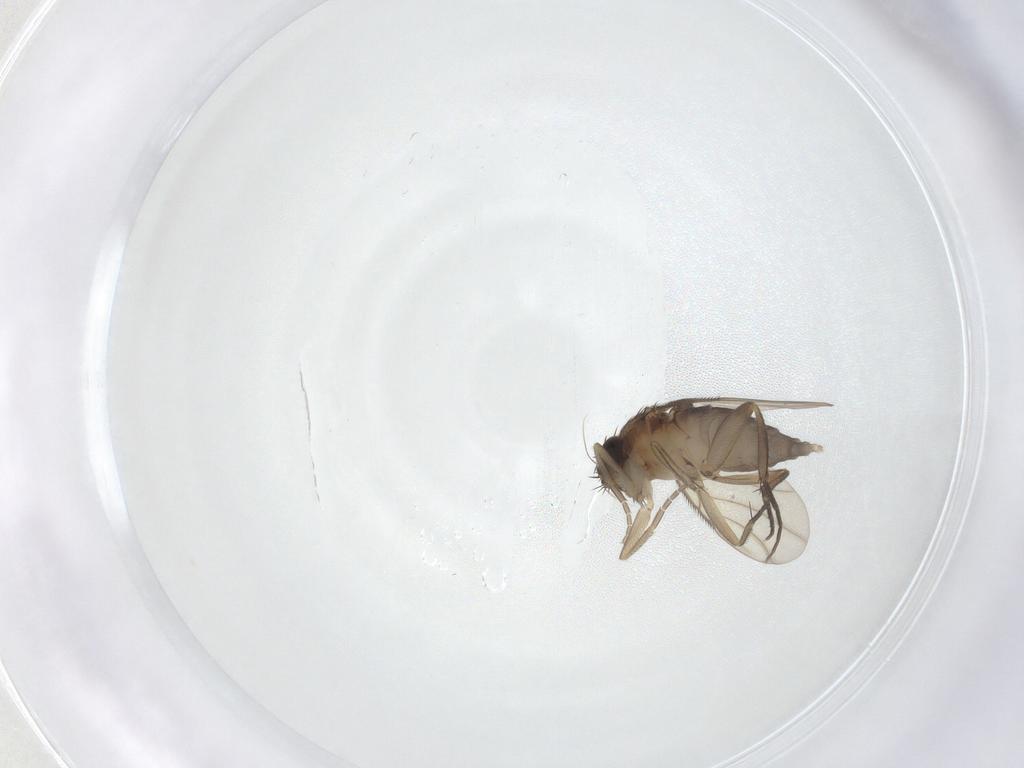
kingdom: Animalia
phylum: Arthropoda
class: Insecta
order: Diptera
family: Phoridae
